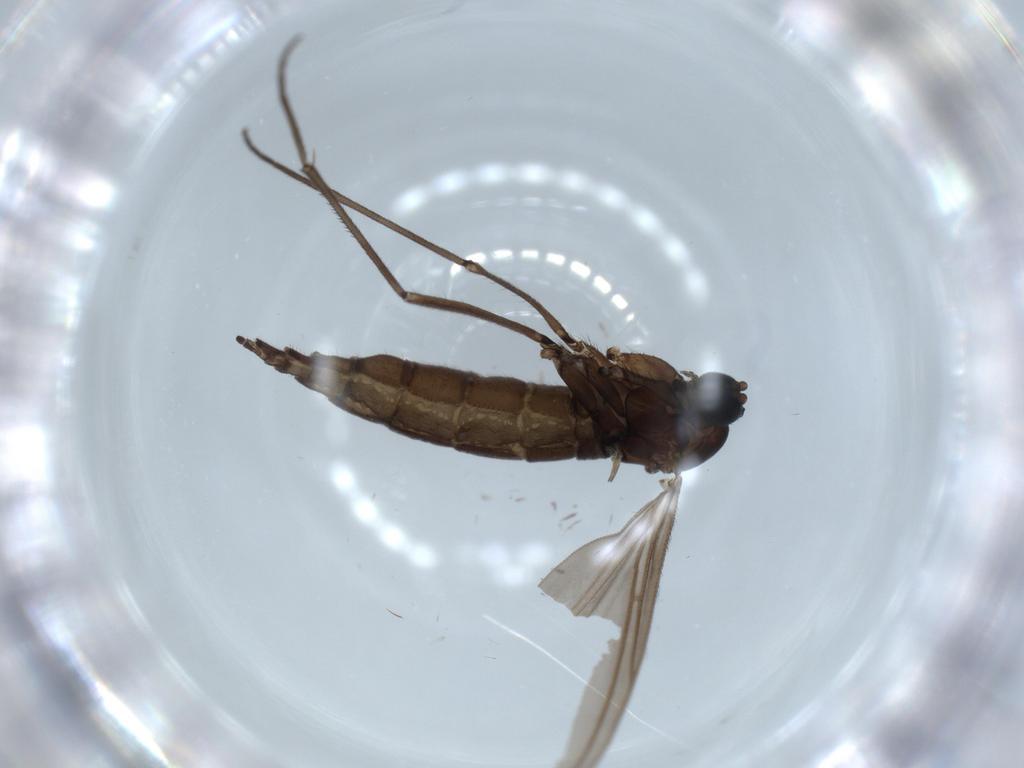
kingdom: Animalia
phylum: Arthropoda
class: Insecta
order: Diptera
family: Sciaridae
